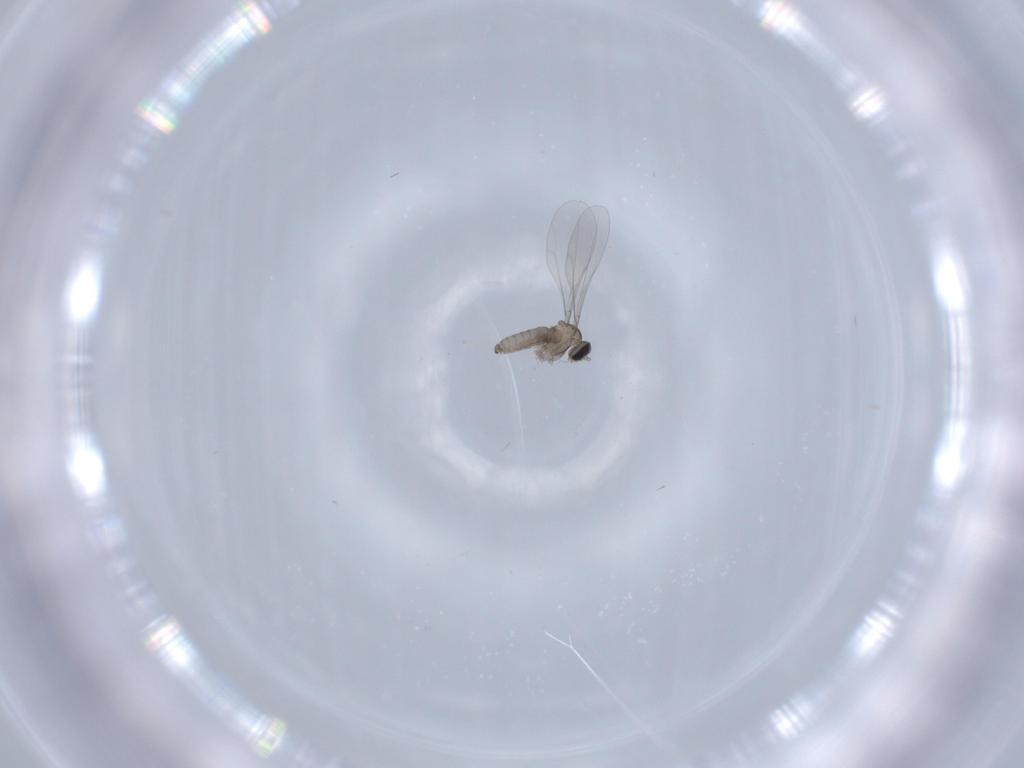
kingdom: Animalia
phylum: Arthropoda
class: Insecta
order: Diptera
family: Cecidomyiidae
